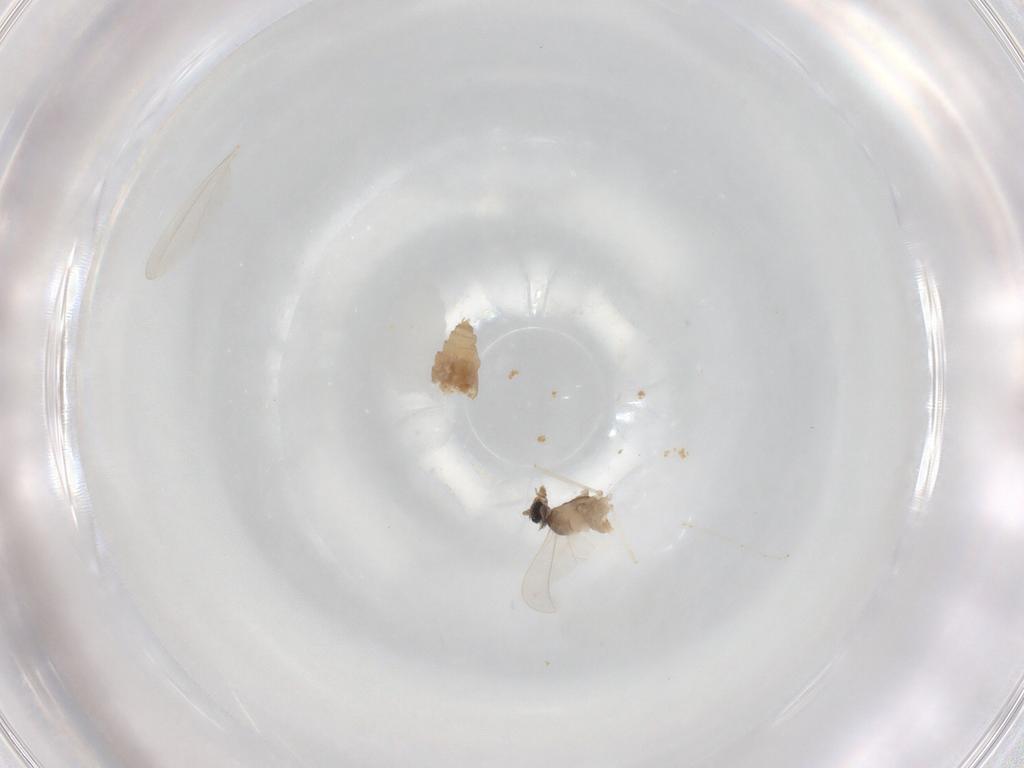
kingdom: Animalia
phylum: Arthropoda
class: Insecta
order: Diptera
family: Cecidomyiidae
